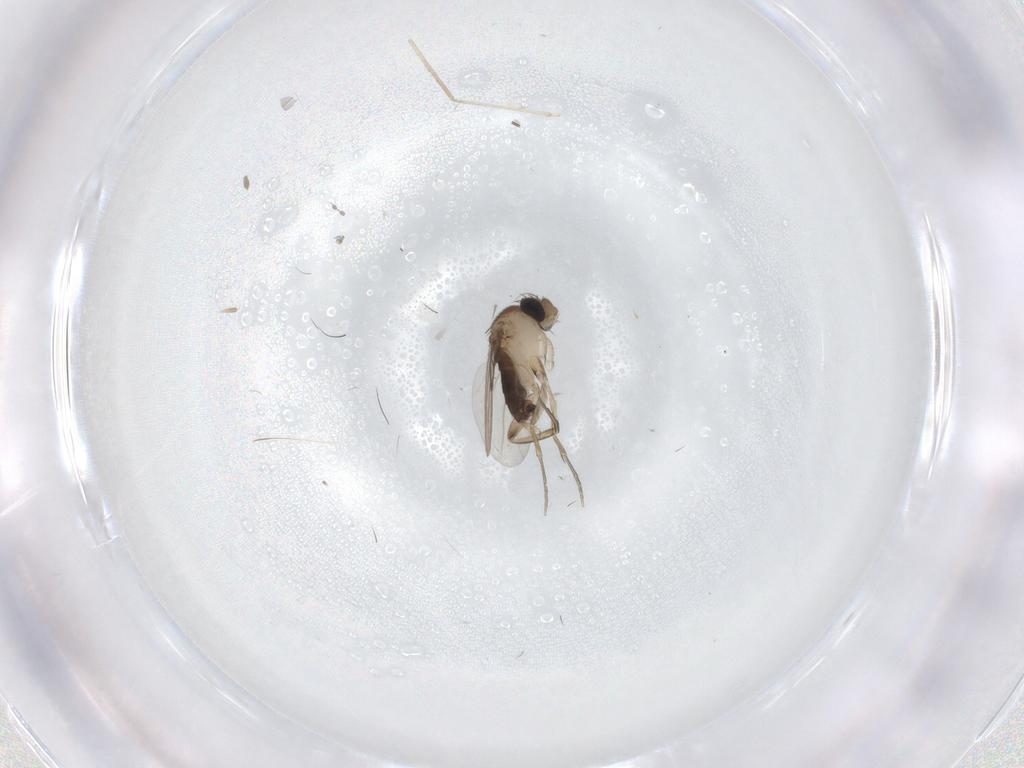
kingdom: Animalia
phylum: Arthropoda
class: Insecta
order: Diptera
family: Phoridae
